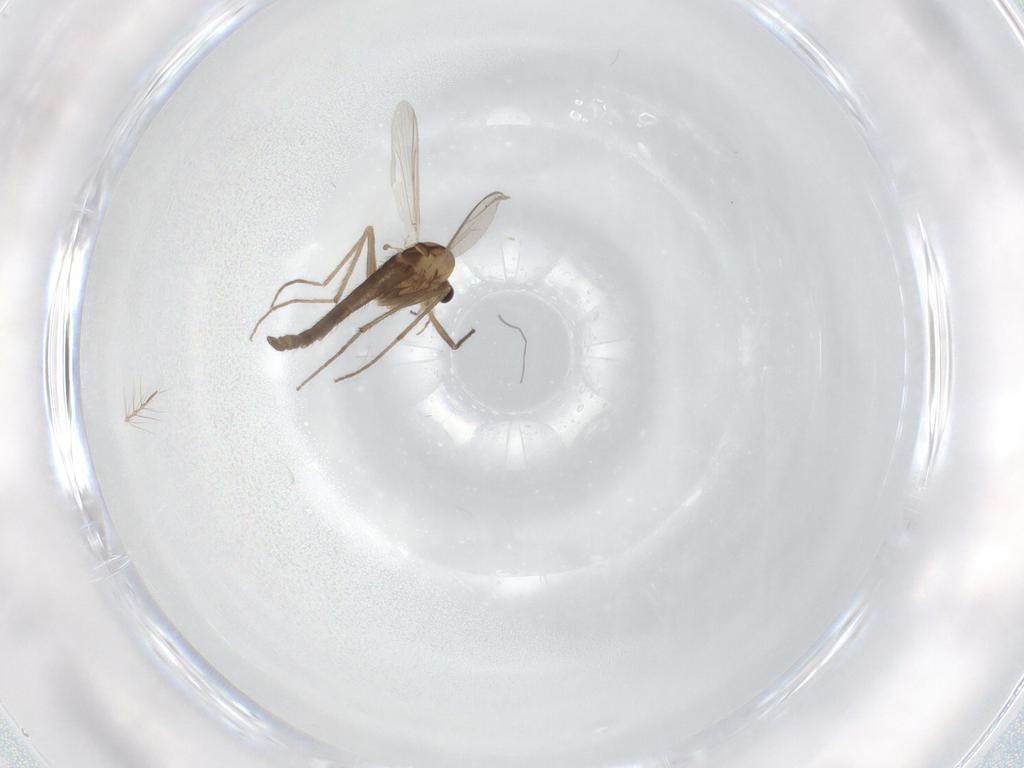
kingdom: Animalia
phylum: Arthropoda
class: Insecta
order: Diptera
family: Chironomidae
